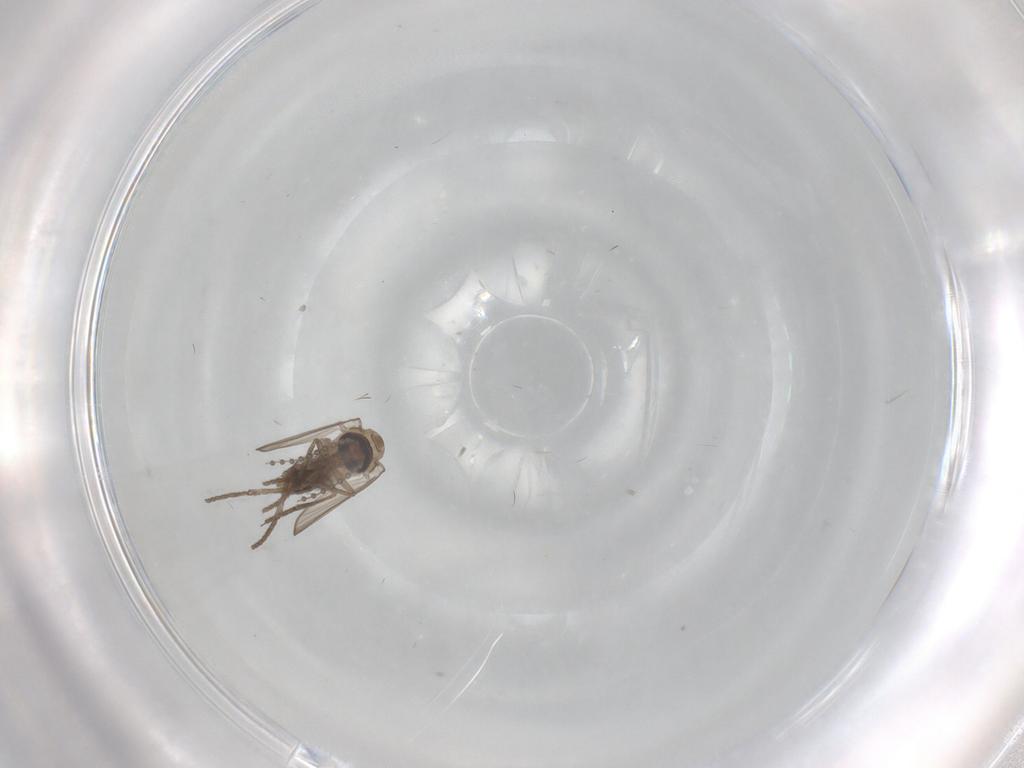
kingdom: Animalia
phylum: Arthropoda
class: Insecta
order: Diptera
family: Psychodidae
